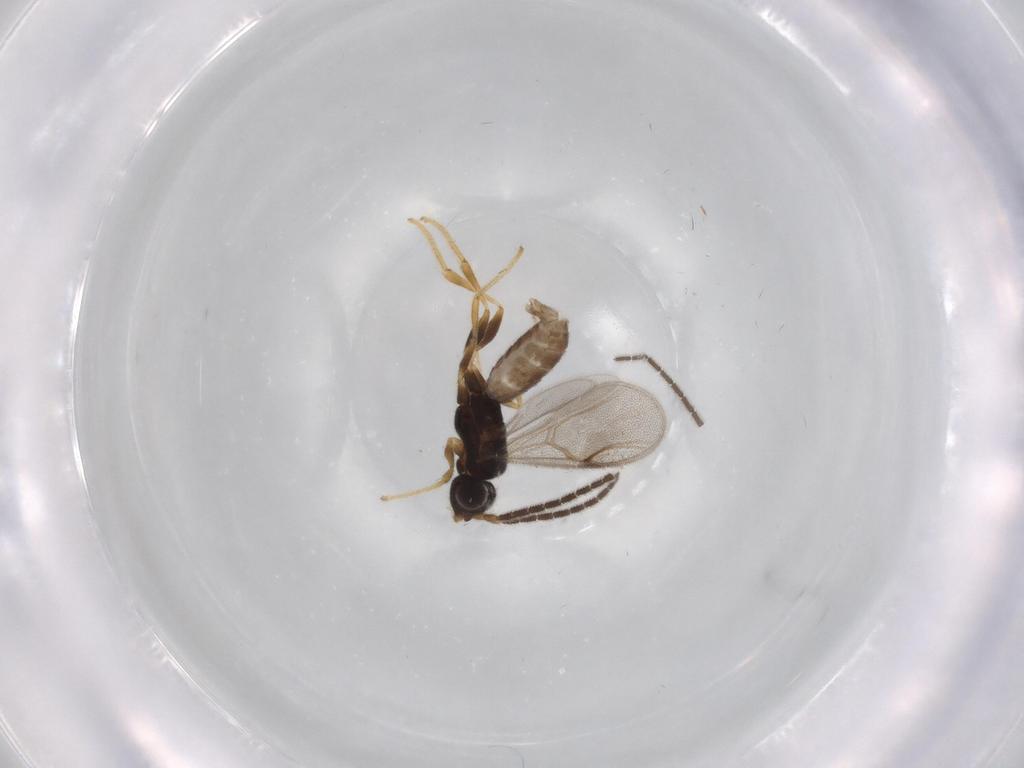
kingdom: Animalia
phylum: Arthropoda
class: Insecta
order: Hymenoptera
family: Dryinidae
